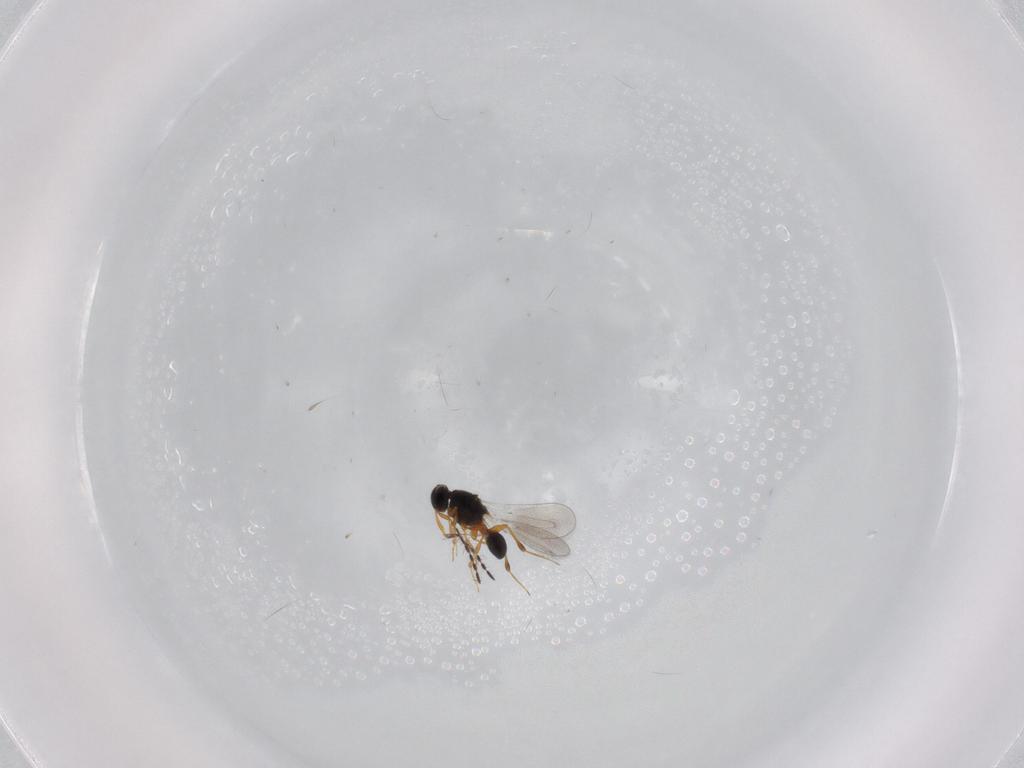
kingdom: Animalia
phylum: Arthropoda
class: Insecta
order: Hymenoptera
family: Platygastridae
